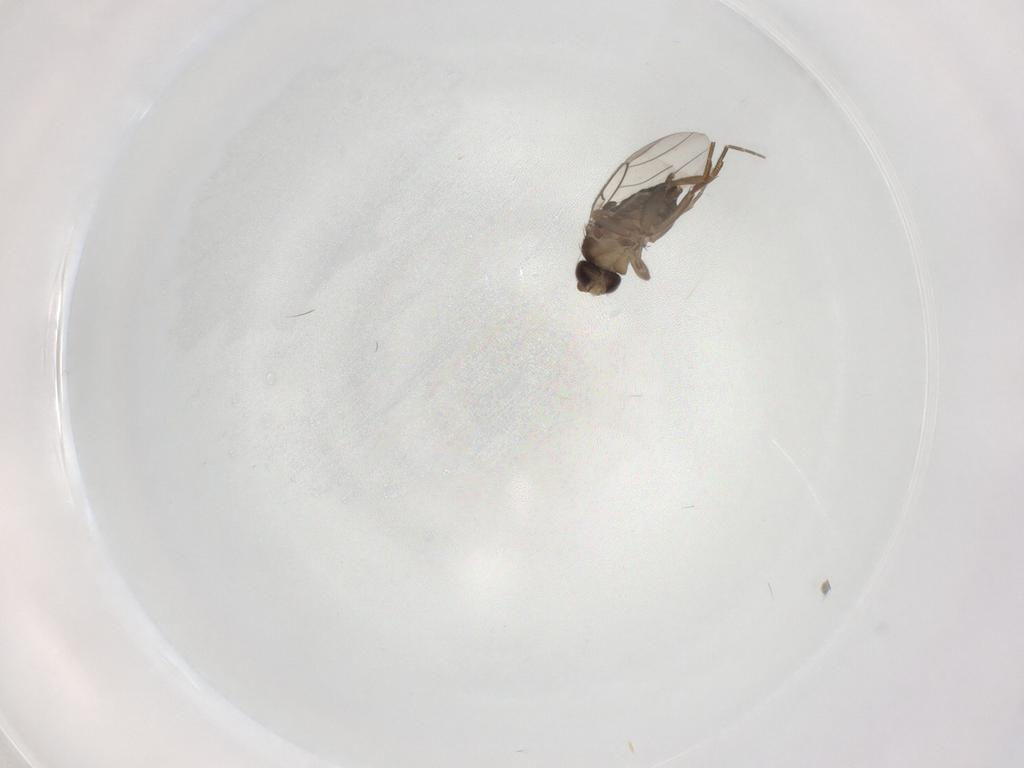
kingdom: Animalia
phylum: Arthropoda
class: Insecta
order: Diptera
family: Phoridae
